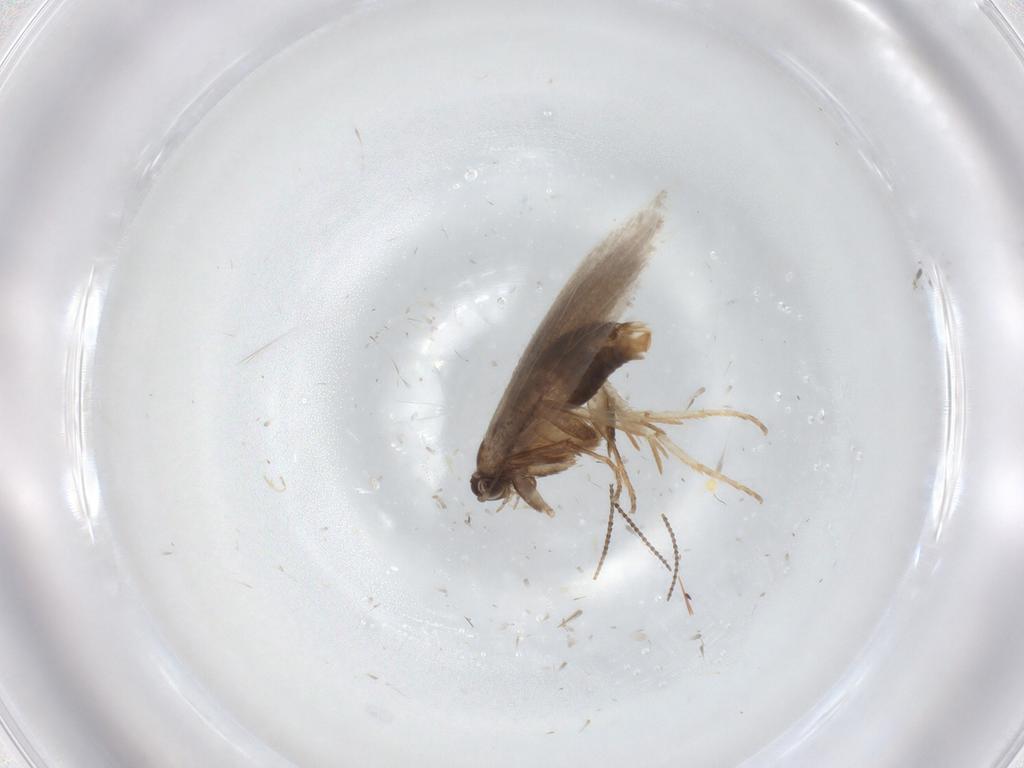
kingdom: Animalia
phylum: Arthropoda
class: Insecta
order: Lepidoptera
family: Nepticulidae
